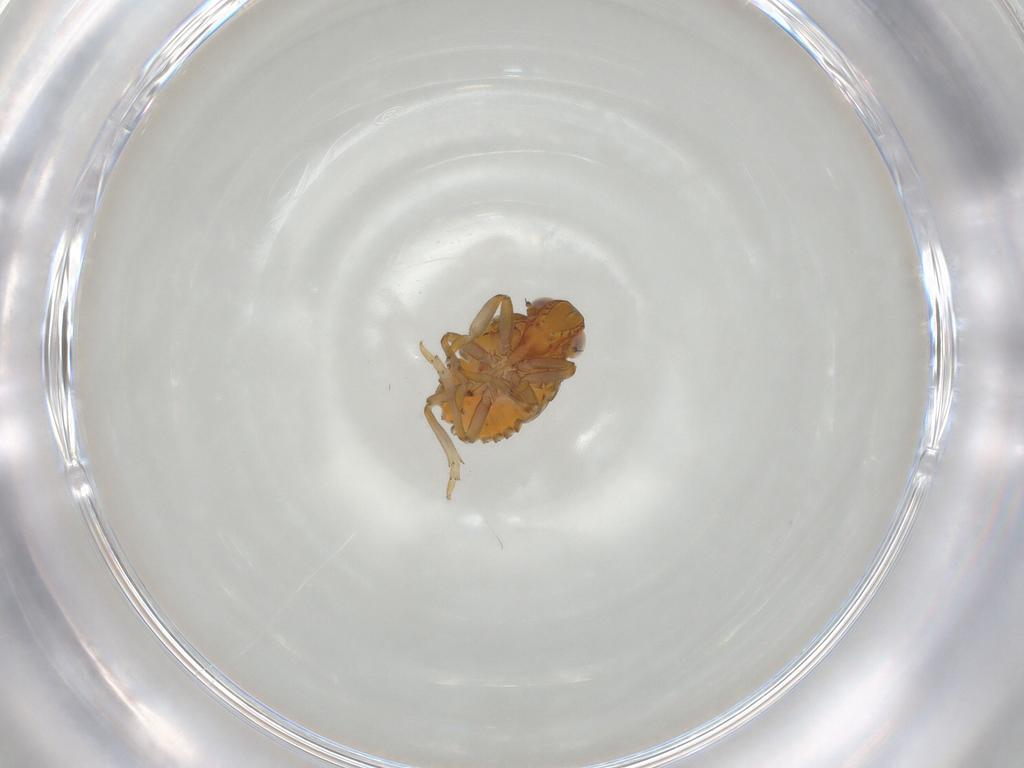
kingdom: Animalia
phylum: Arthropoda
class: Insecta
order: Hemiptera
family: Issidae
